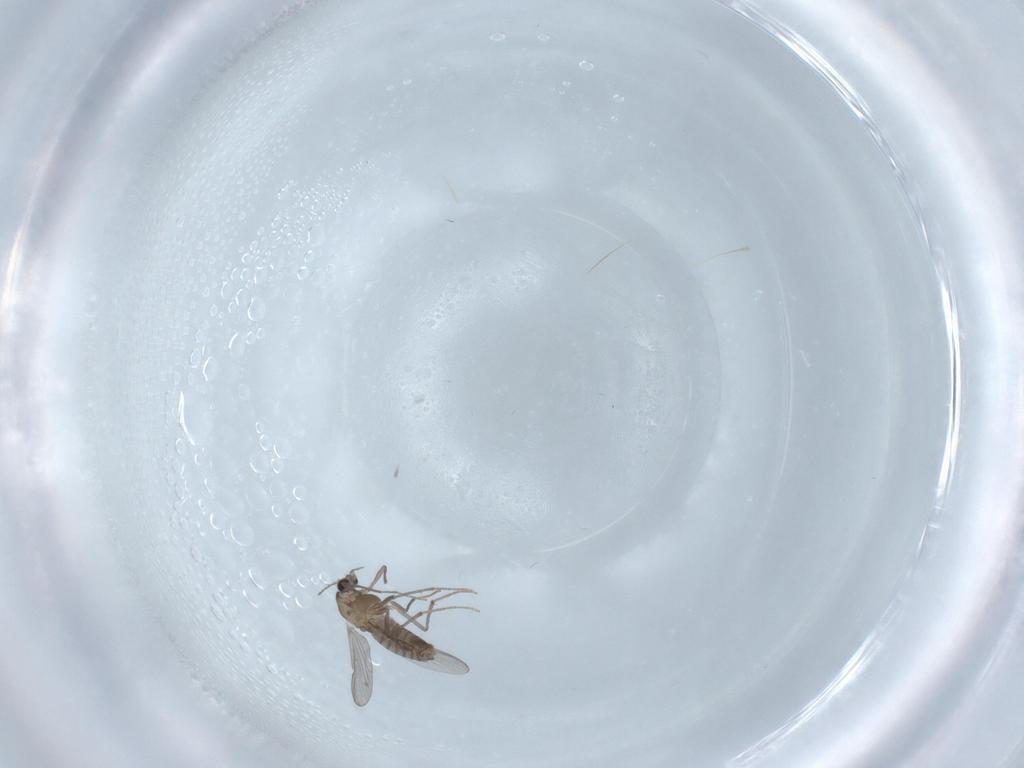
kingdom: Animalia
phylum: Arthropoda
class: Insecta
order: Diptera
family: Chironomidae
